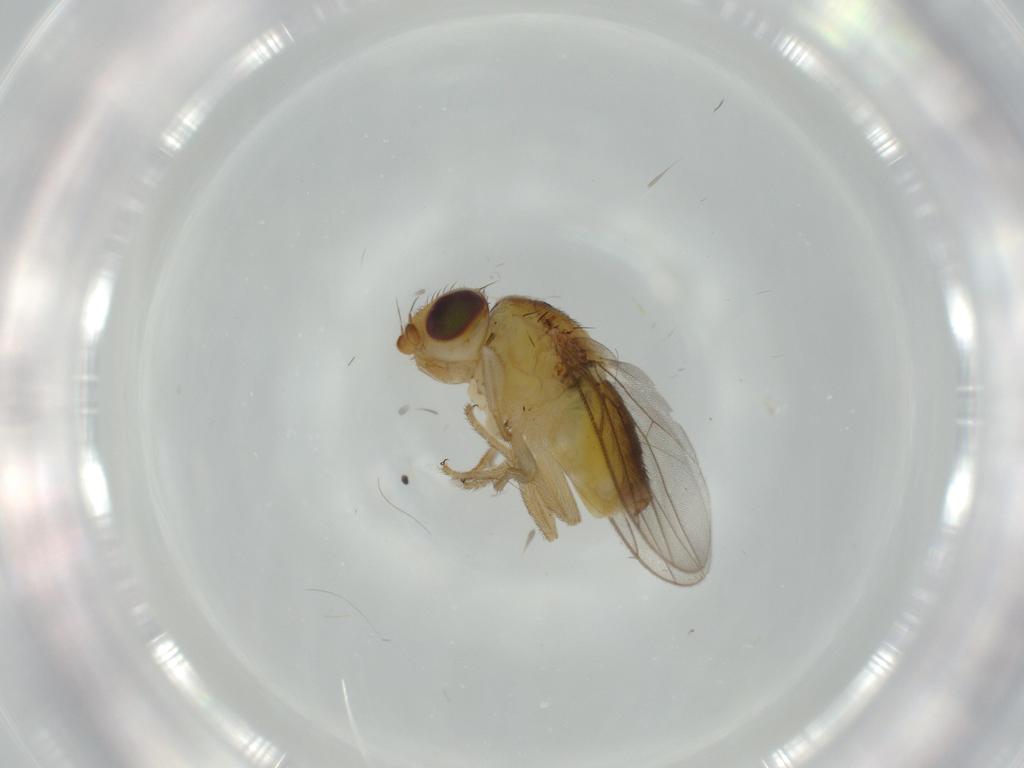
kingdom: Animalia
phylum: Arthropoda
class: Insecta
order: Diptera
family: Chloropidae
